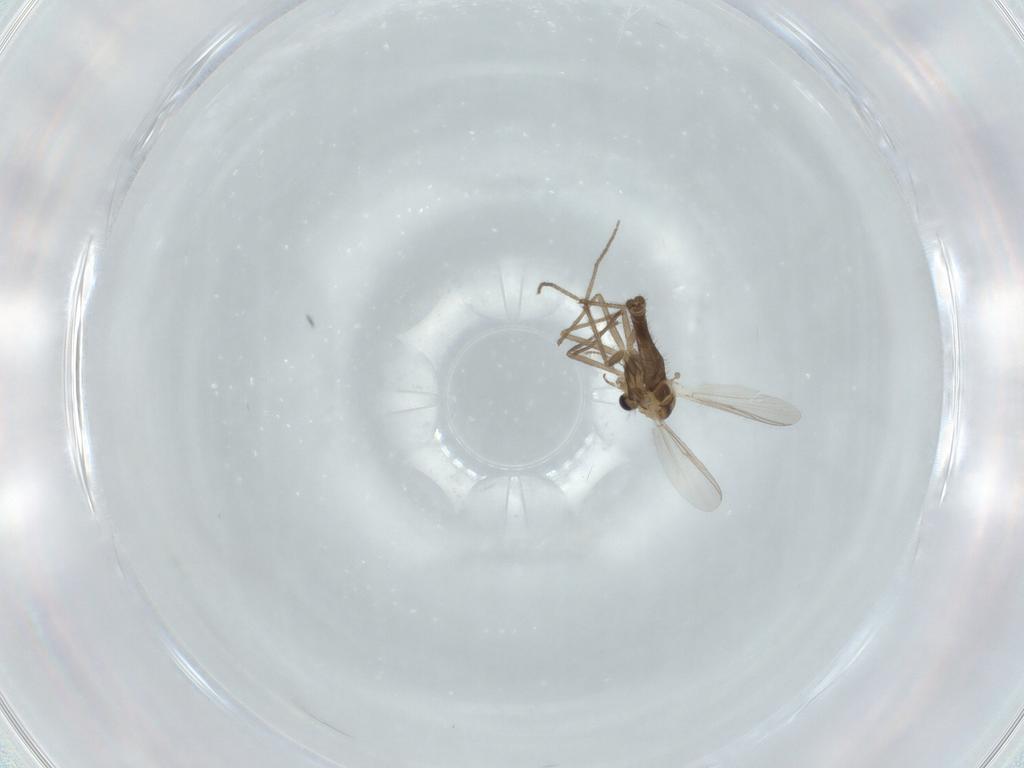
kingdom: Animalia
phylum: Arthropoda
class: Insecta
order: Diptera
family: Chironomidae
